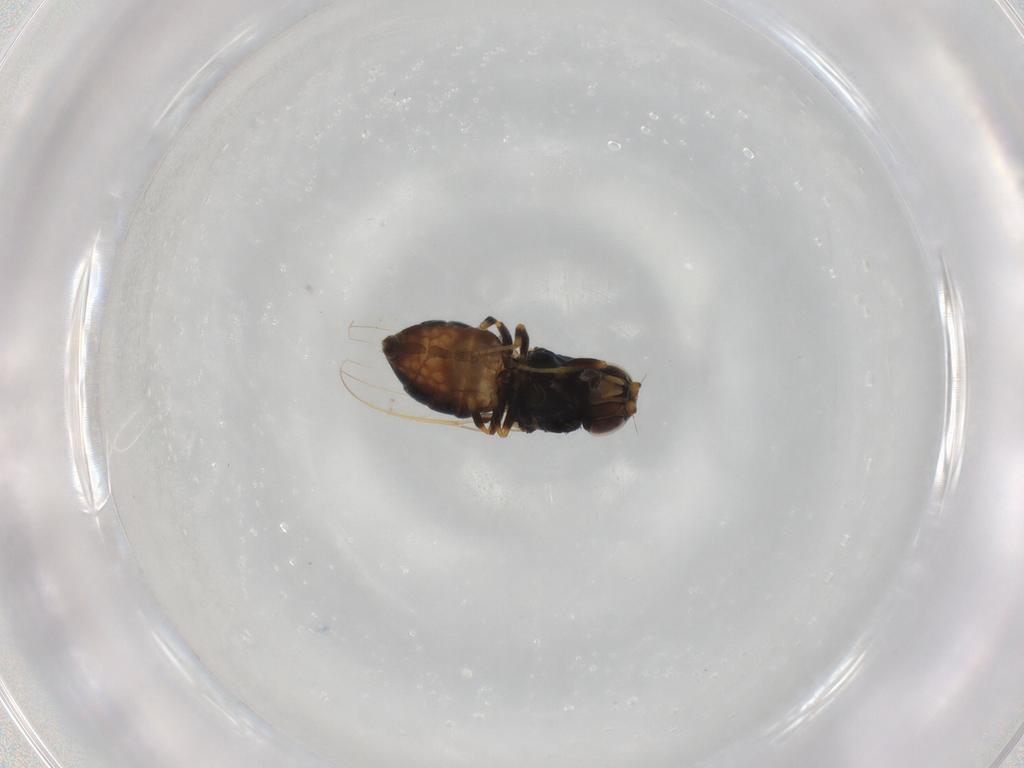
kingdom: Animalia
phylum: Arthropoda
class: Insecta
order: Diptera
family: Chloropidae
